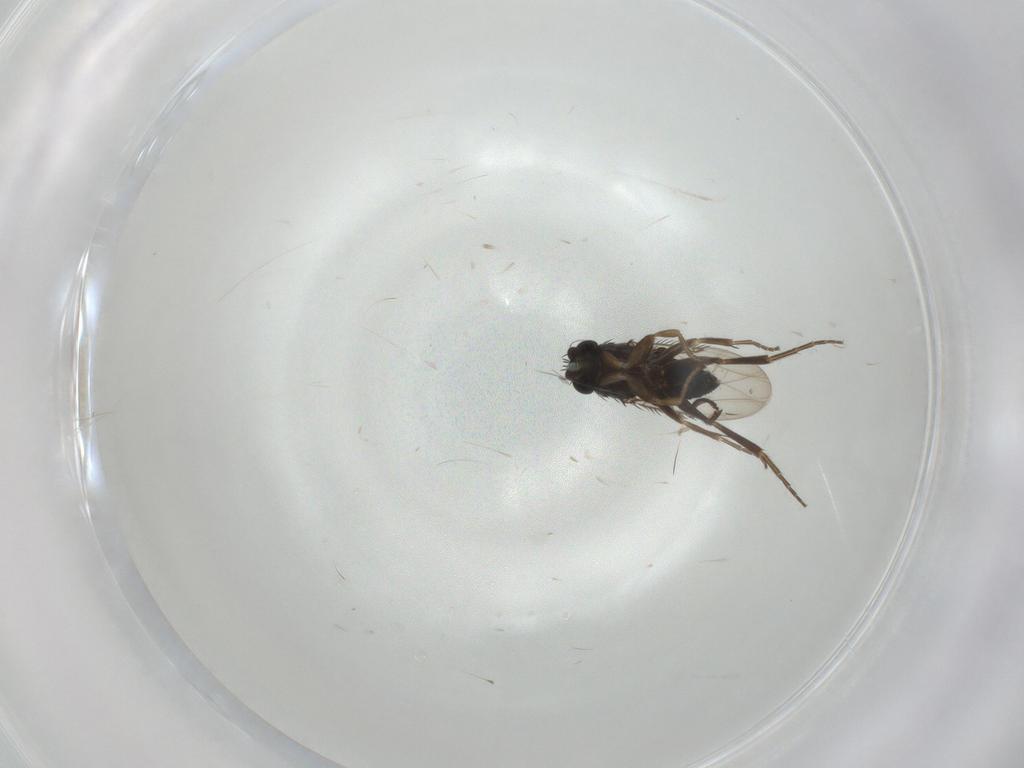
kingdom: Animalia
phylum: Arthropoda
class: Insecta
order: Diptera
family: Phoridae
